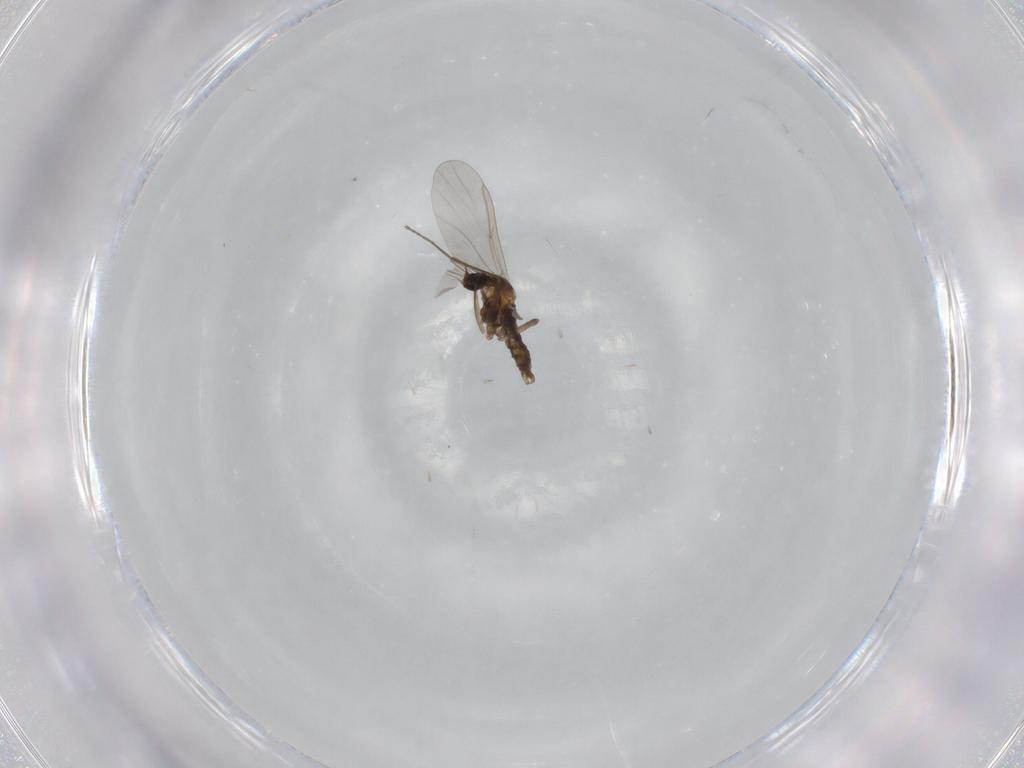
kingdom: Animalia
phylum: Arthropoda
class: Insecta
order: Diptera
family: Cecidomyiidae
